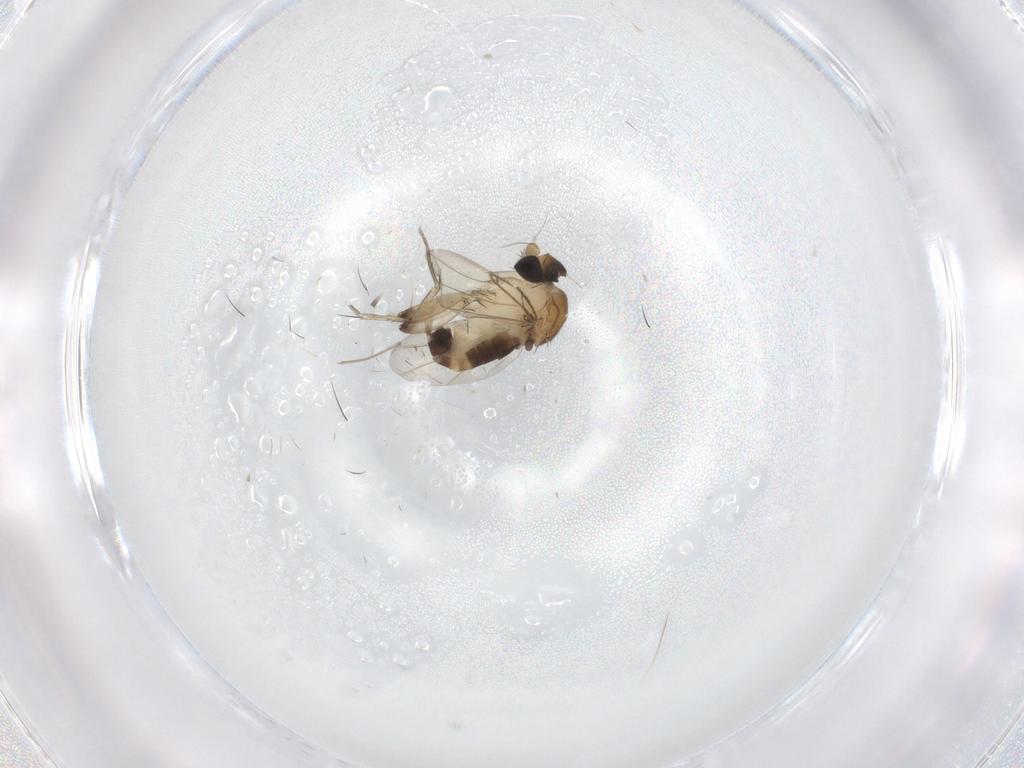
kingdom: Animalia
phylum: Arthropoda
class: Insecta
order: Diptera
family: Phoridae
